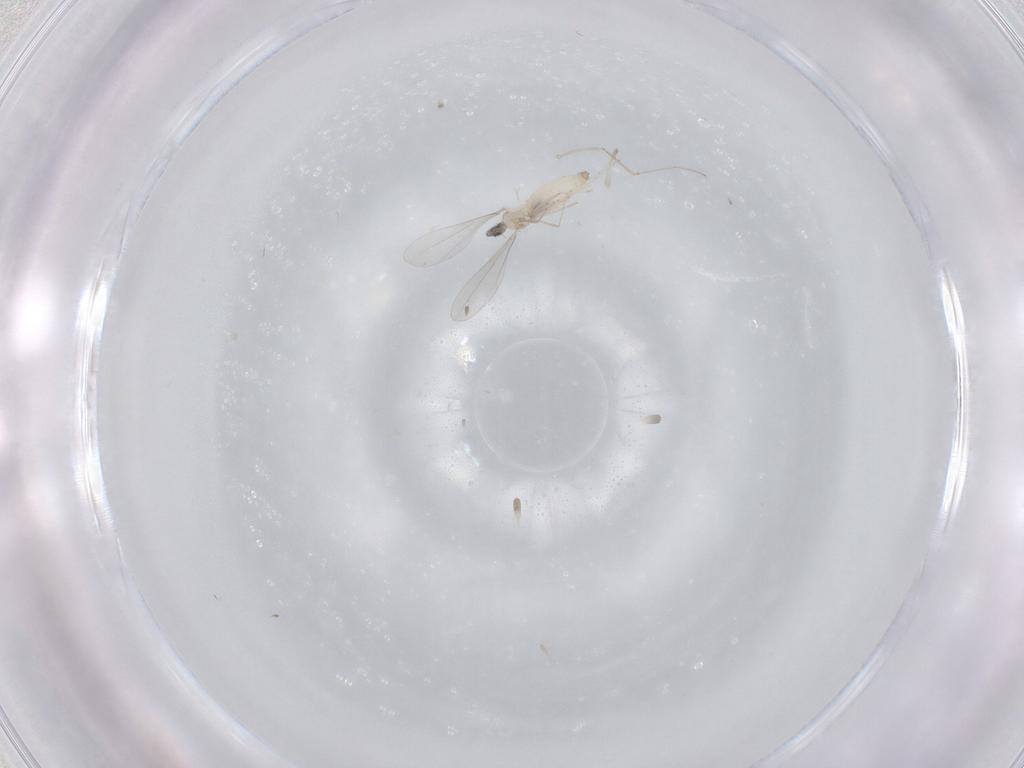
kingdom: Animalia
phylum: Arthropoda
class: Insecta
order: Diptera
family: Cecidomyiidae
